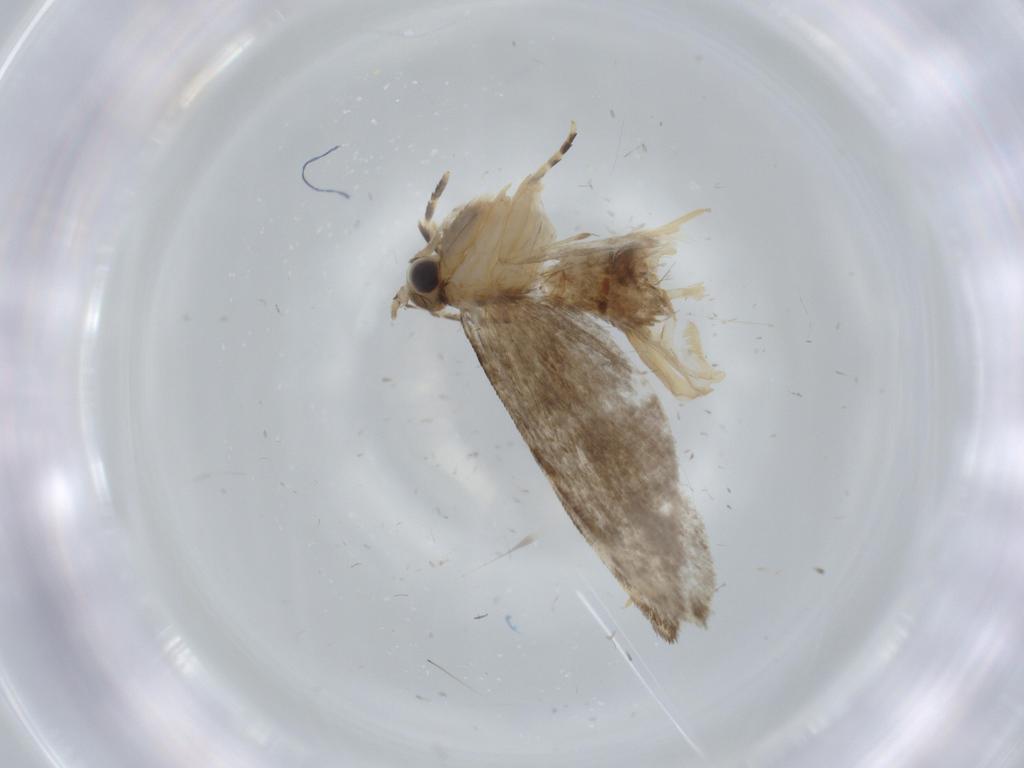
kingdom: Animalia
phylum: Arthropoda
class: Insecta
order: Lepidoptera
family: Tineidae
